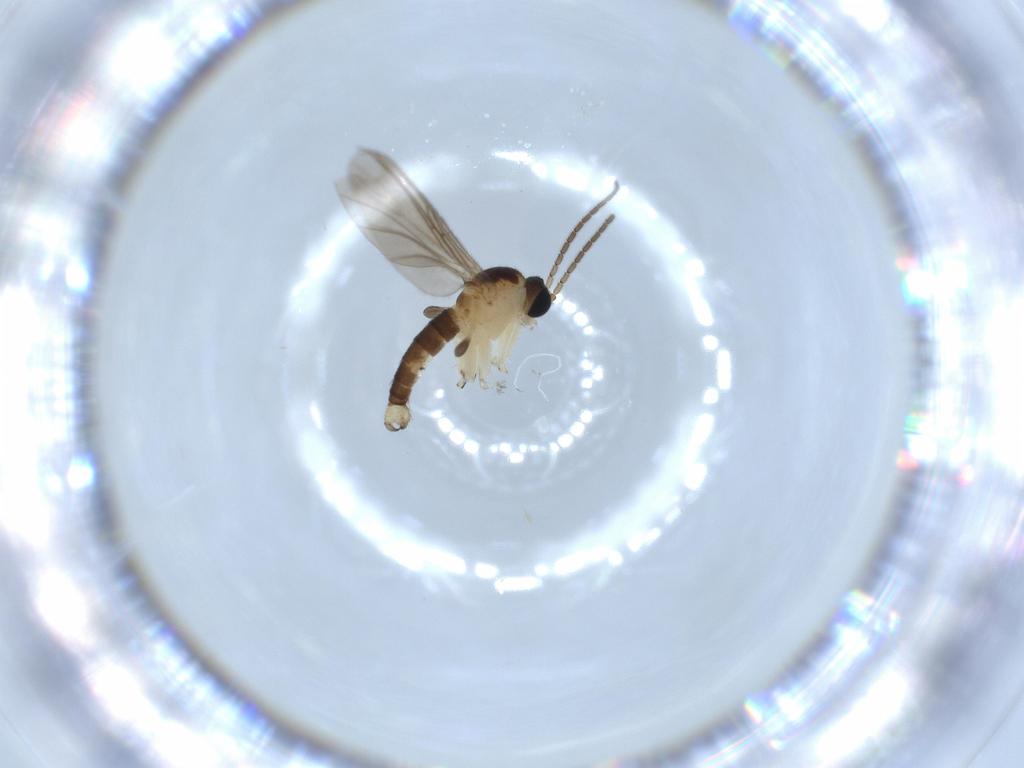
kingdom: Animalia
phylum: Arthropoda
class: Insecta
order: Diptera
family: Sciaridae
